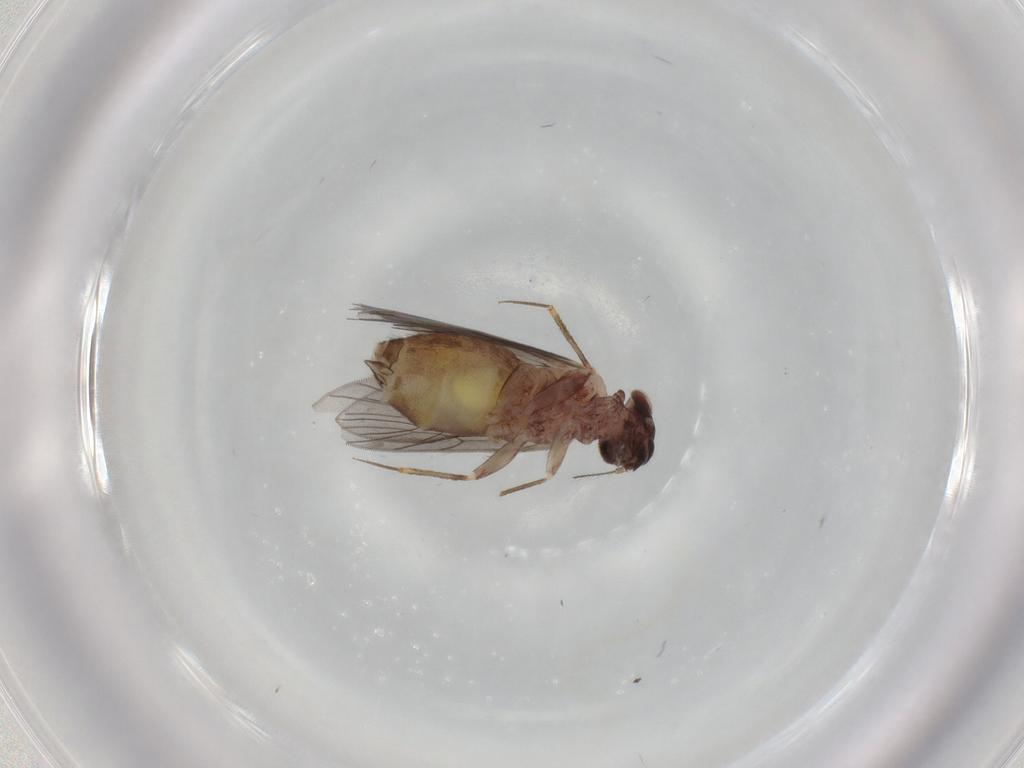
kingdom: Animalia
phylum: Arthropoda
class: Insecta
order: Psocodea
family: Lepidopsocidae
